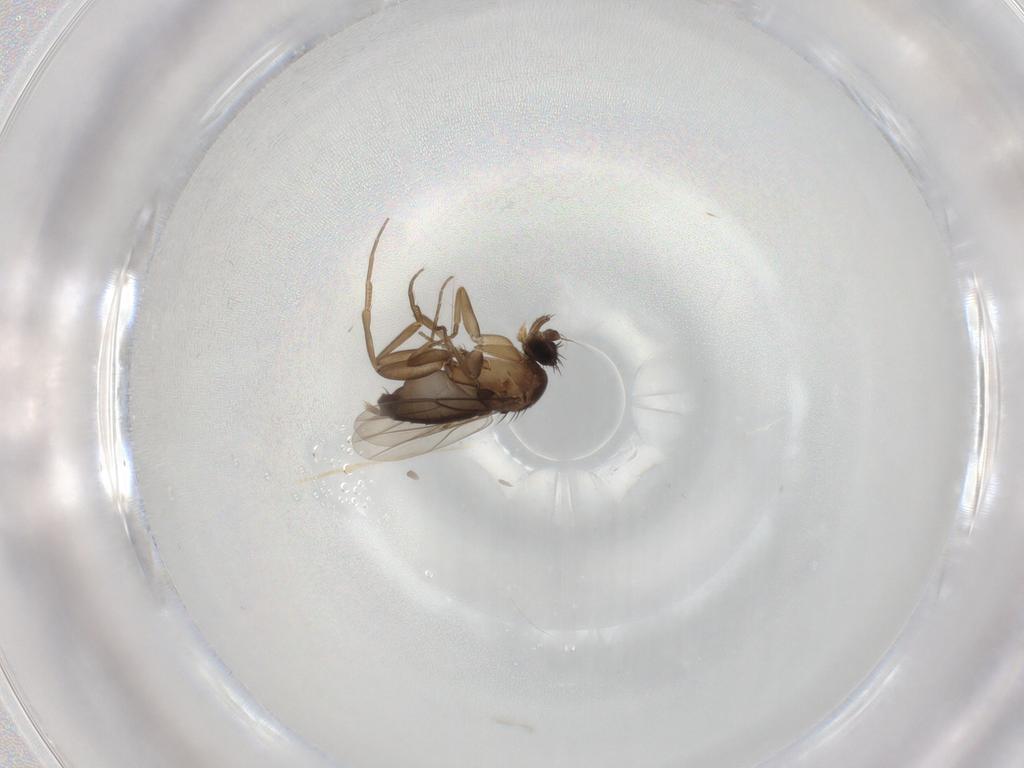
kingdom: Animalia
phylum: Arthropoda
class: Insecta
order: Diptera
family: Phoridae
